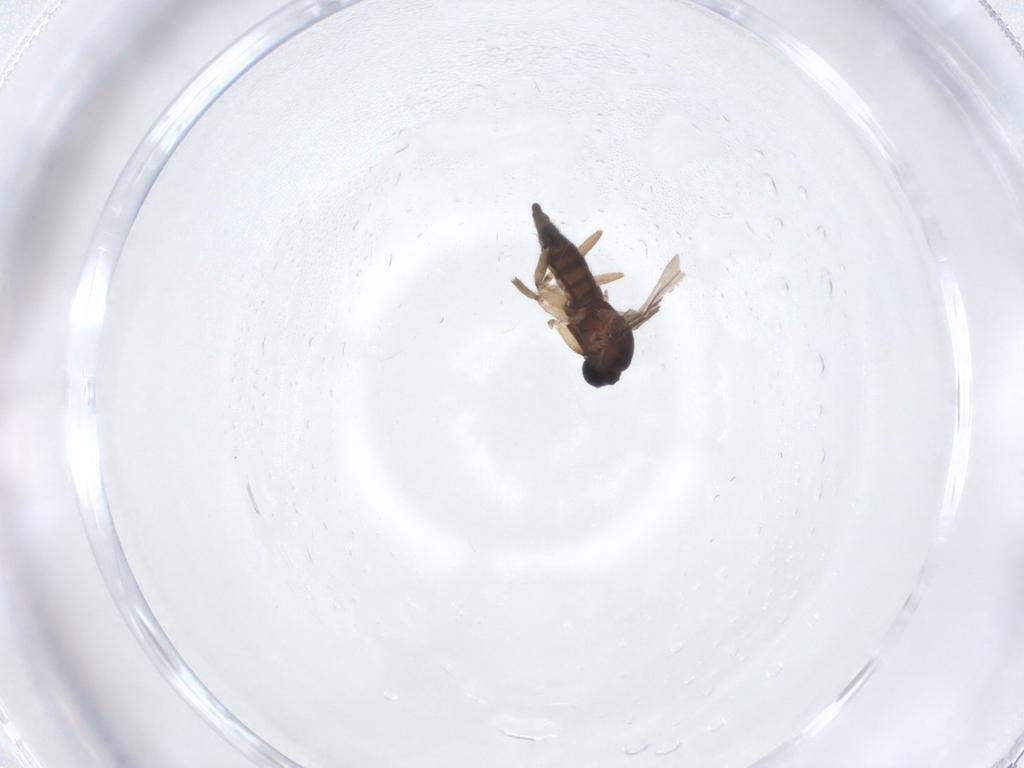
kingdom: Animalia
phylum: Arthropoda
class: Insecta
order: Diptera
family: Sciaridae
